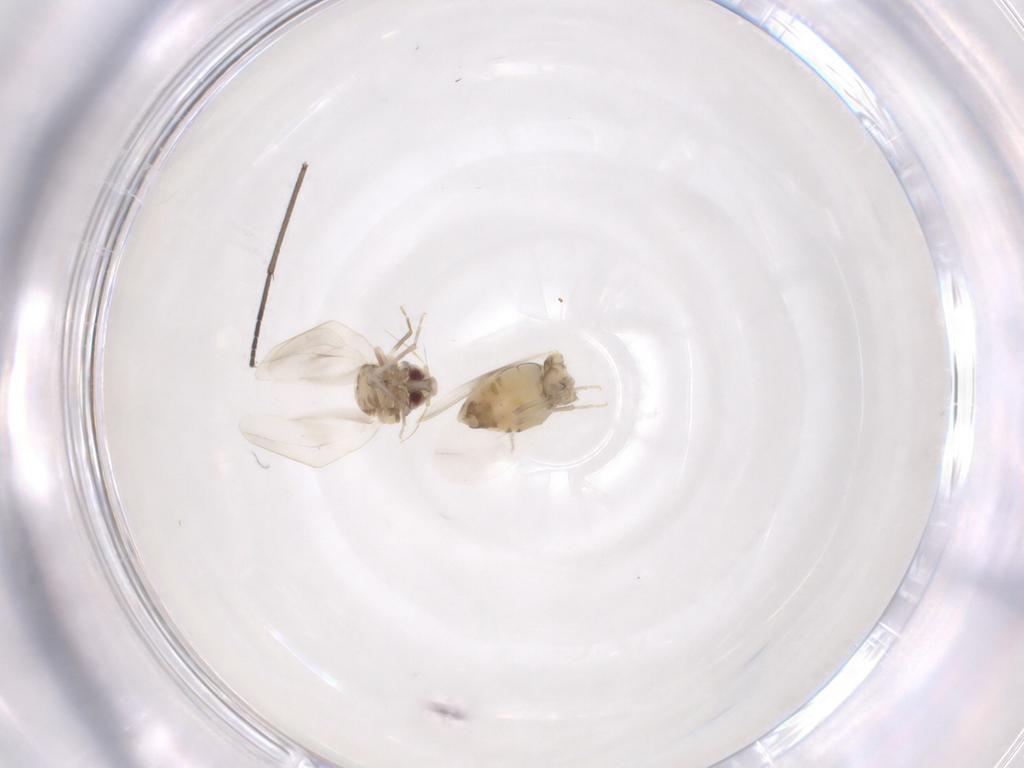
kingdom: Animalia
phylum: Arthropoda
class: Insecta
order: Hemiptera
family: Aleyrodidae
